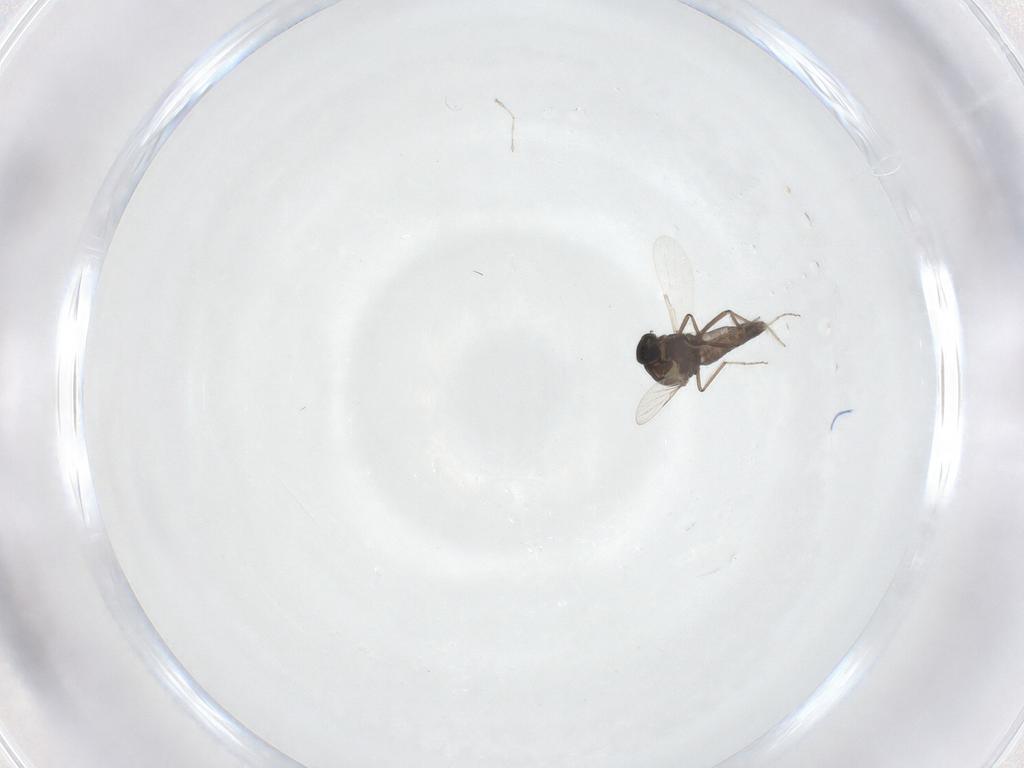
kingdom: Animalia
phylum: Arthropoda
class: Insecta
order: Diptera
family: Ceratopogonidae
